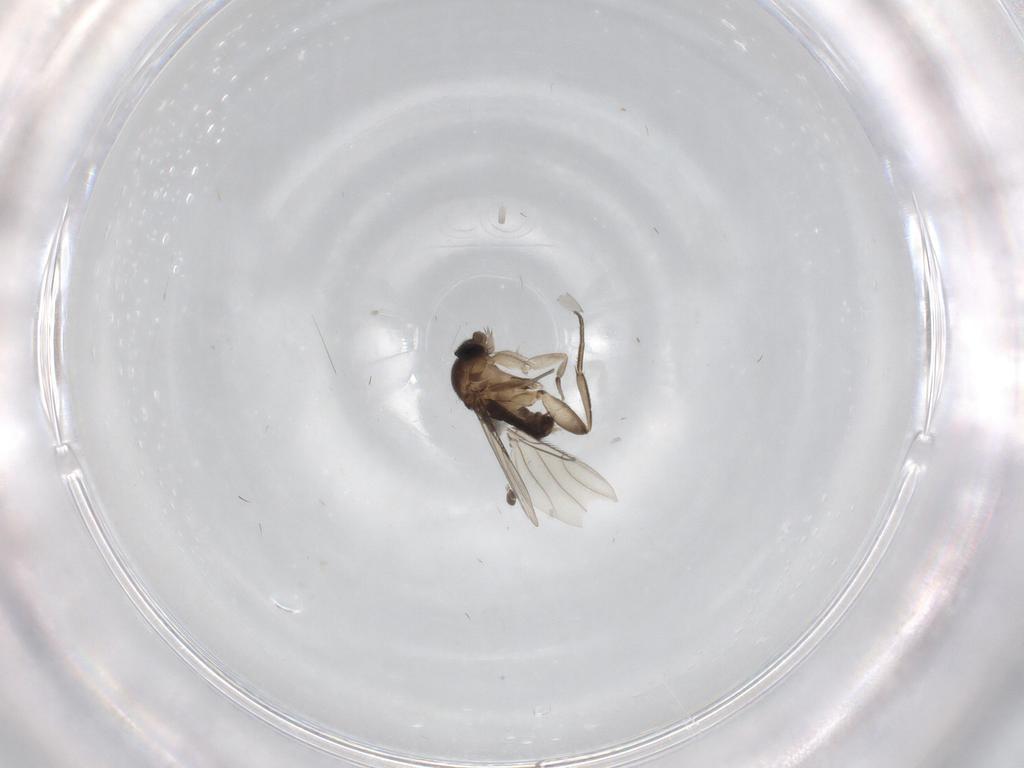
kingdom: Animalia
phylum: Arthropoda
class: Insecta
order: Diptera
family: Phoridae
